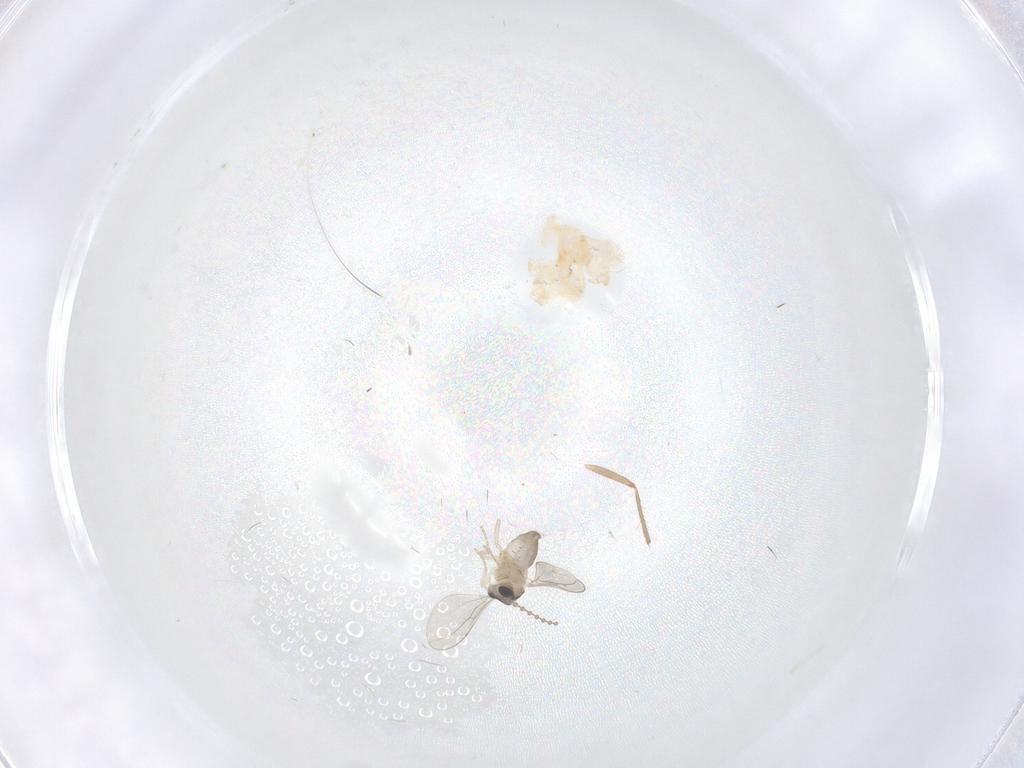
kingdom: Animalia
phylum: Arthropoda
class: Insecta
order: Diptera
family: Cecidomyiidae
